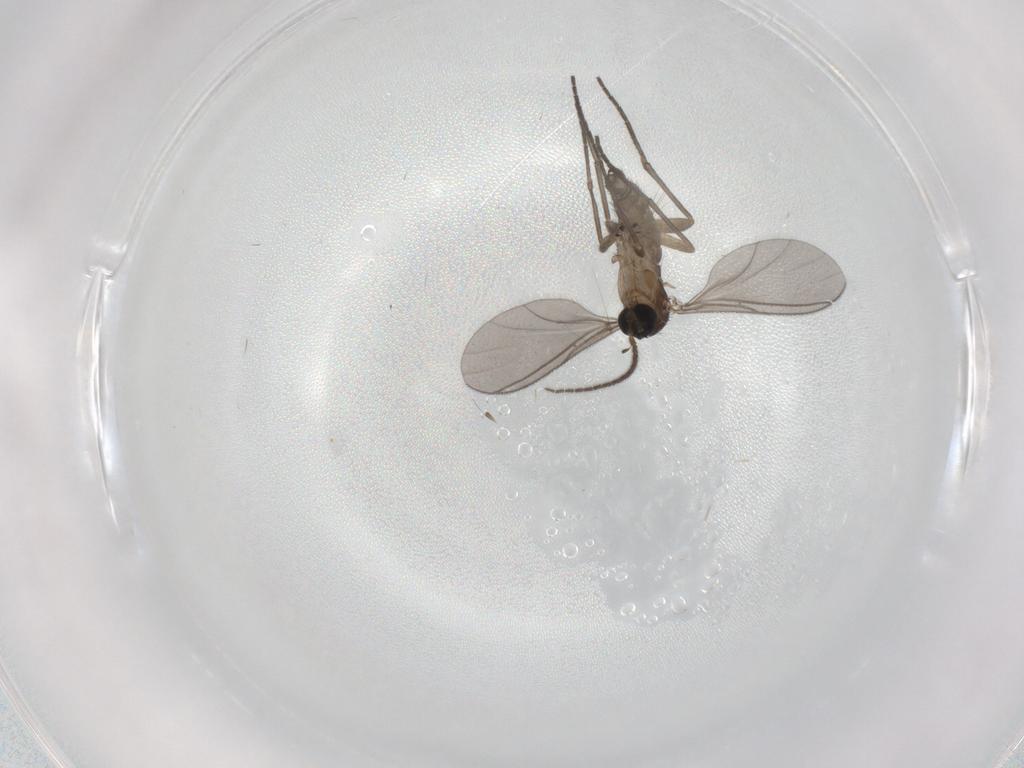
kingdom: Animalia
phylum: Arthropoda
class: Insecta
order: Diptera
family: Sciaridae
